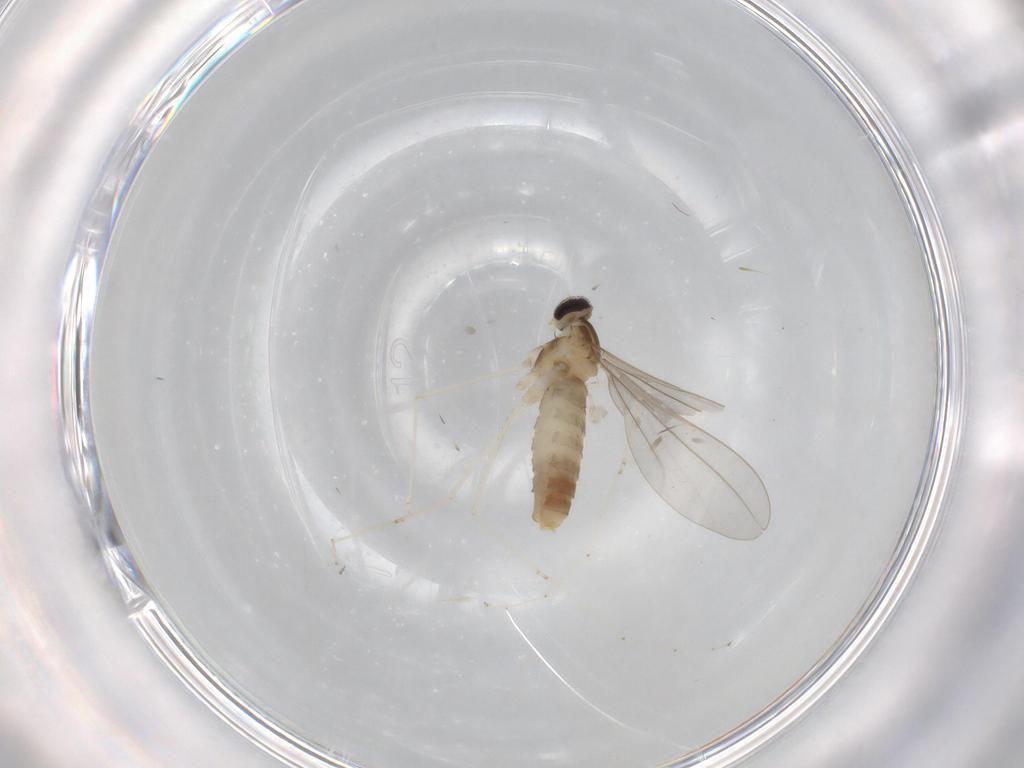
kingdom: Animalia
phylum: Arthropoda
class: Insecta
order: Diptera
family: Cecidomyiidae
